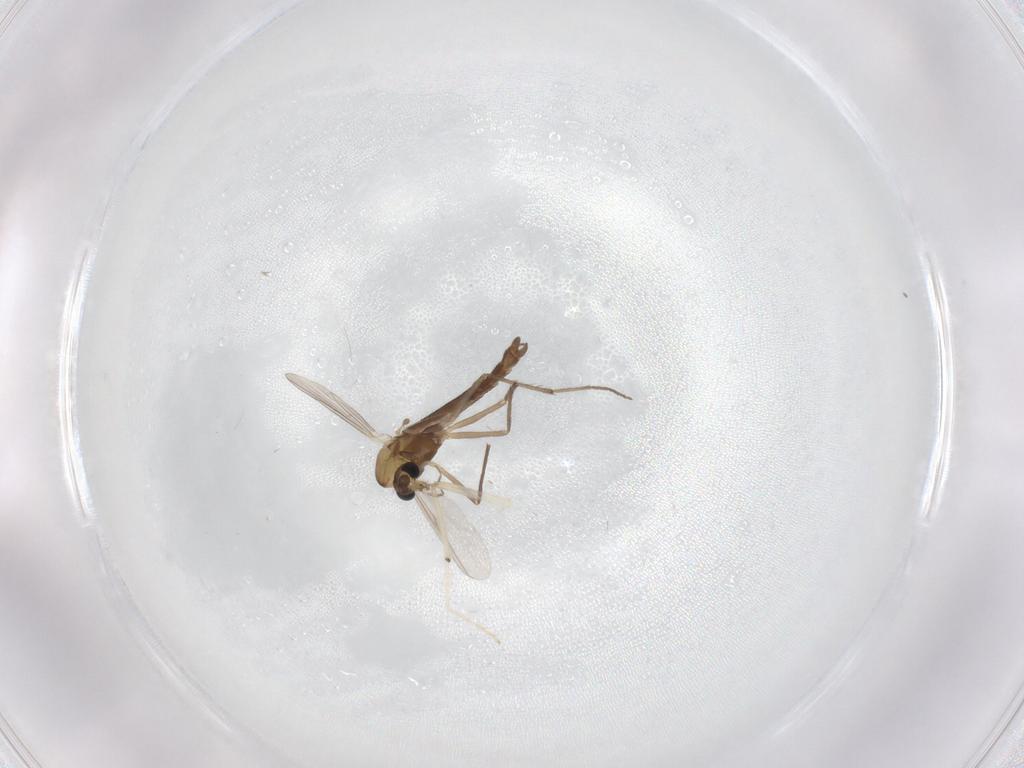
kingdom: Animalia
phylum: Arthropoda
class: Insecta
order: Diptera
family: Chironomidae
